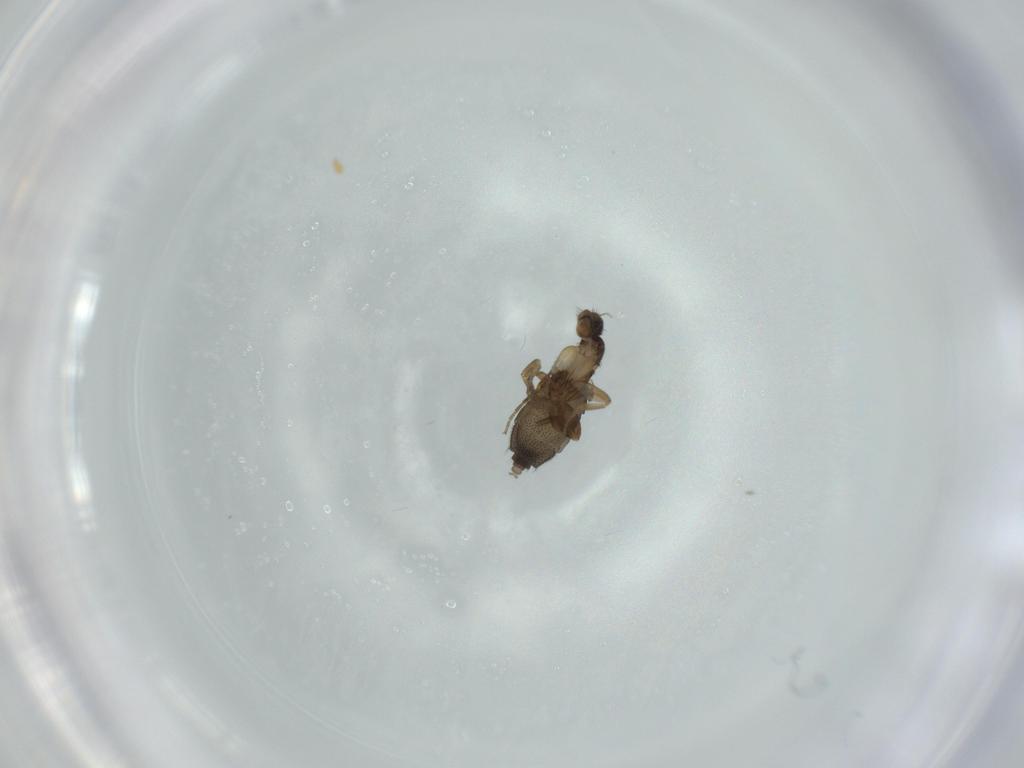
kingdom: Animalia
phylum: Arthropoda
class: Insecta
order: Diptera
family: Phoridae
